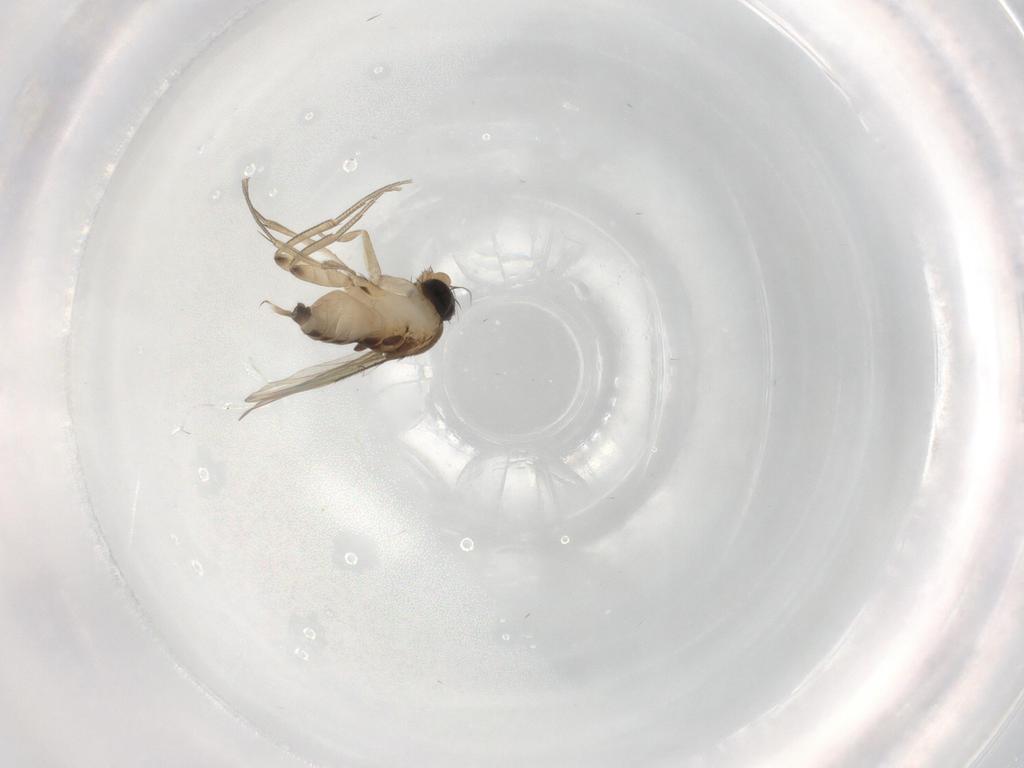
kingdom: Animalia
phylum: Arthropoda
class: Insecta
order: Diptera
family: Phoridae
